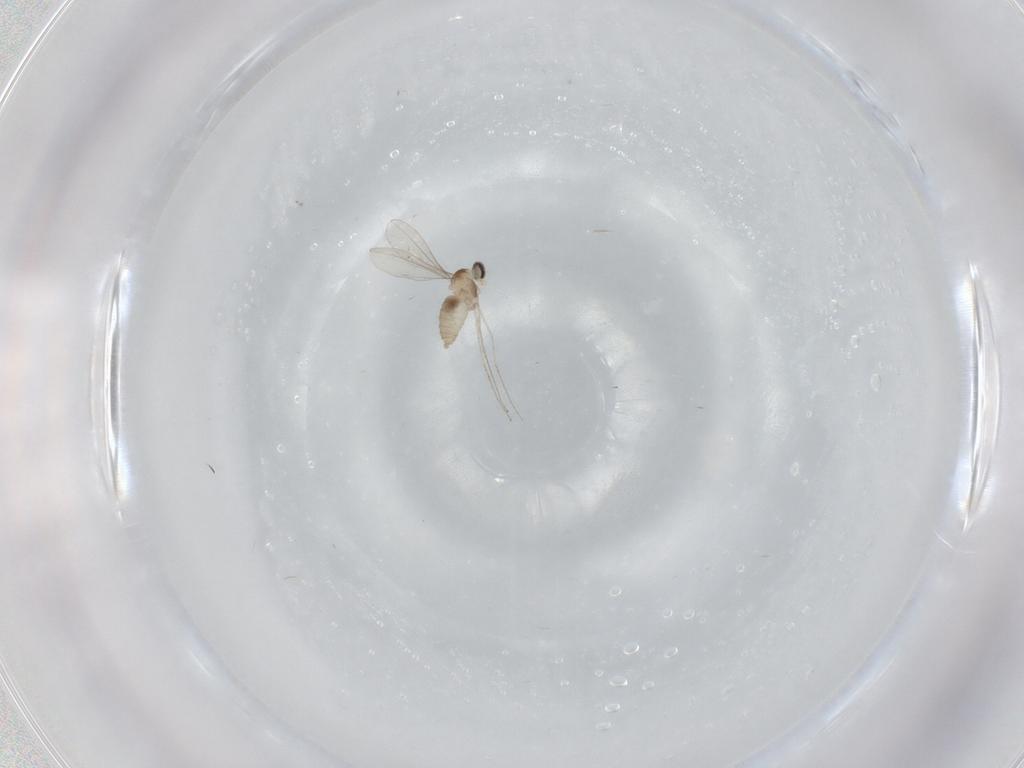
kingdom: Animalia
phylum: Arthropoda
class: Insecta
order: Diptera
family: Cecidomyiidae
